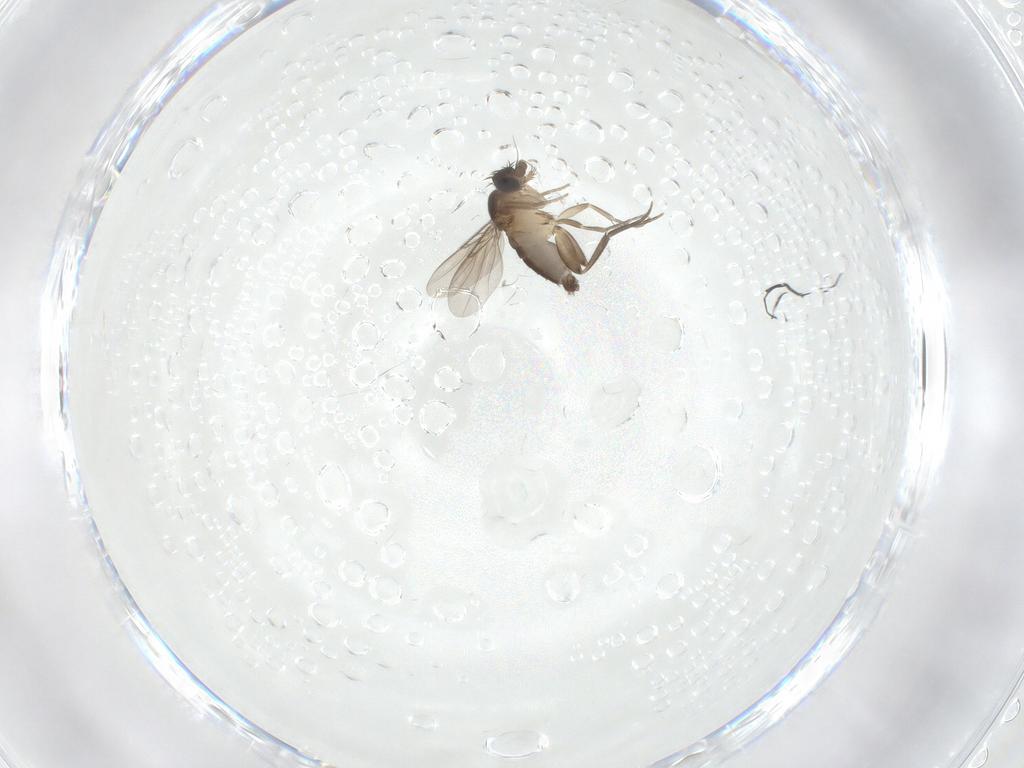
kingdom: Animalia
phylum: Arthropoda
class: Insecta
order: Diptera
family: Phoridae
